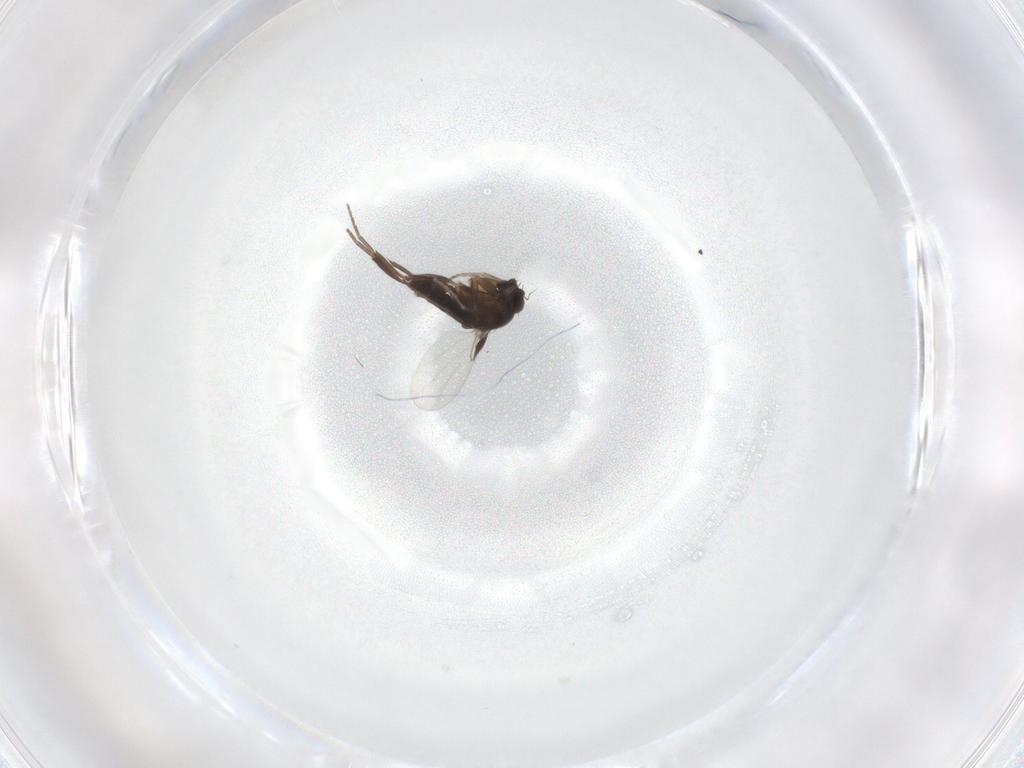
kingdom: Animalia
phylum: Arthropoda
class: Insecta
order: Diptera
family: Phoridae
